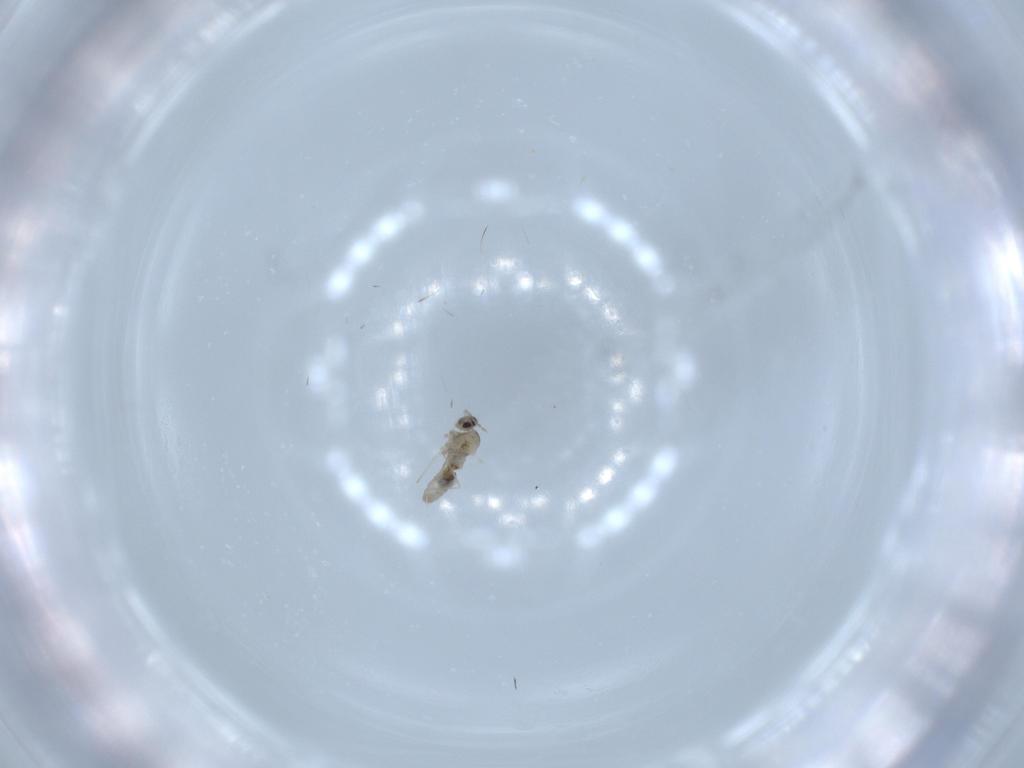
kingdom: Animalia
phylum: Arthropoda
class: Insecta
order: Diptera
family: Cecidomyiidae
